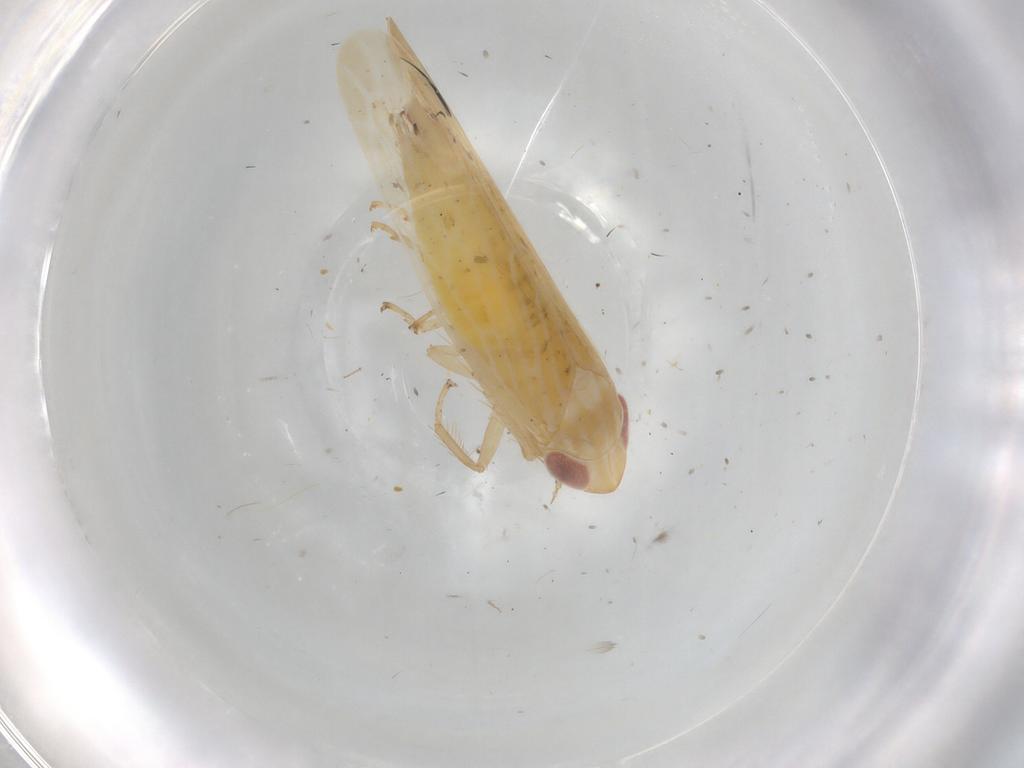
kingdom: Animalia
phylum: Arthropoda
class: Insecta
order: Hemiptera
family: Cicadellidae
